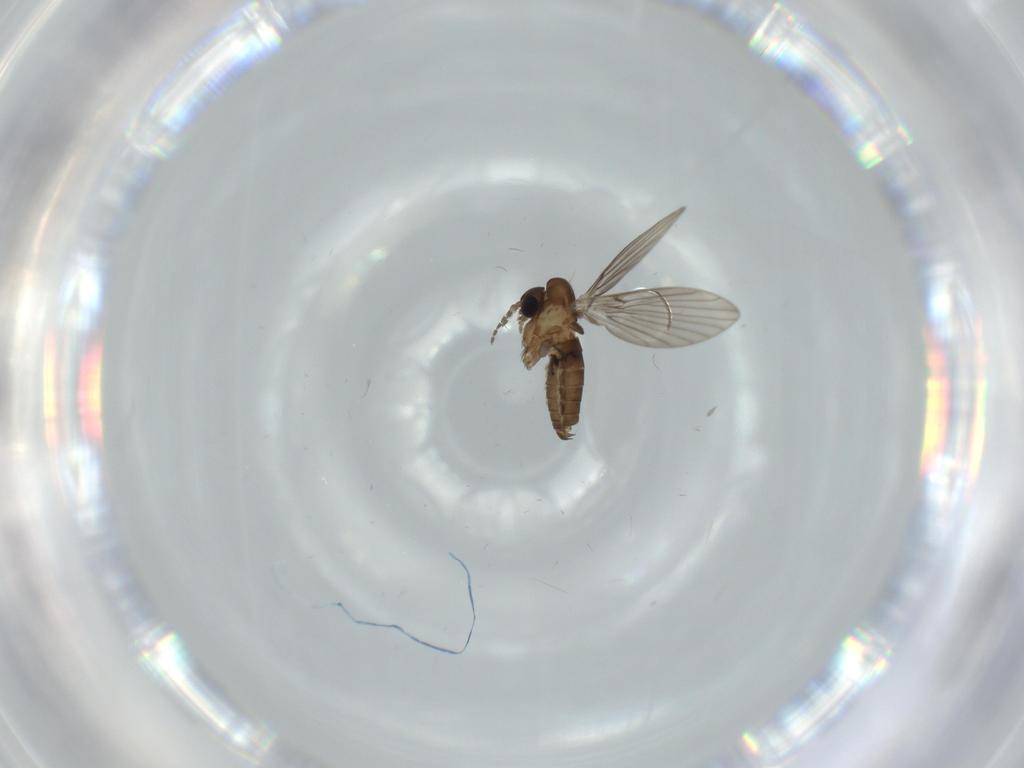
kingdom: Animalia
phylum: Arthropoda
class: Insecta
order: Diptera
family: Psychodidae
